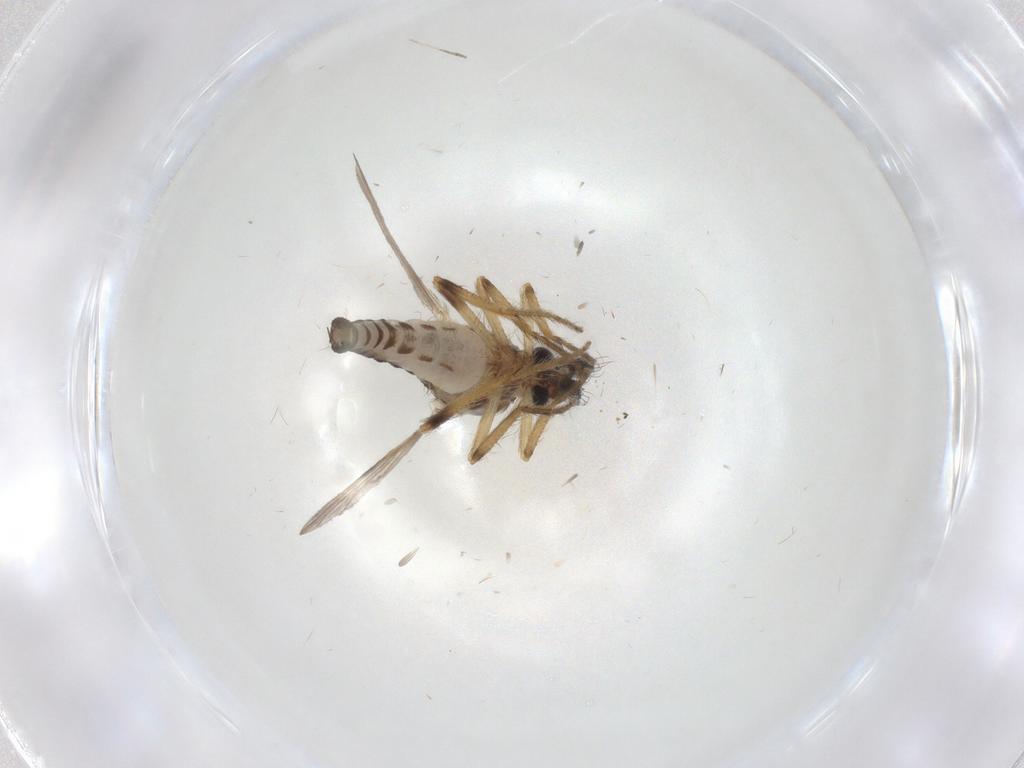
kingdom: Animalia
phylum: Arthropoda
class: Insecta
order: Diptera
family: Ceratopogonidae
